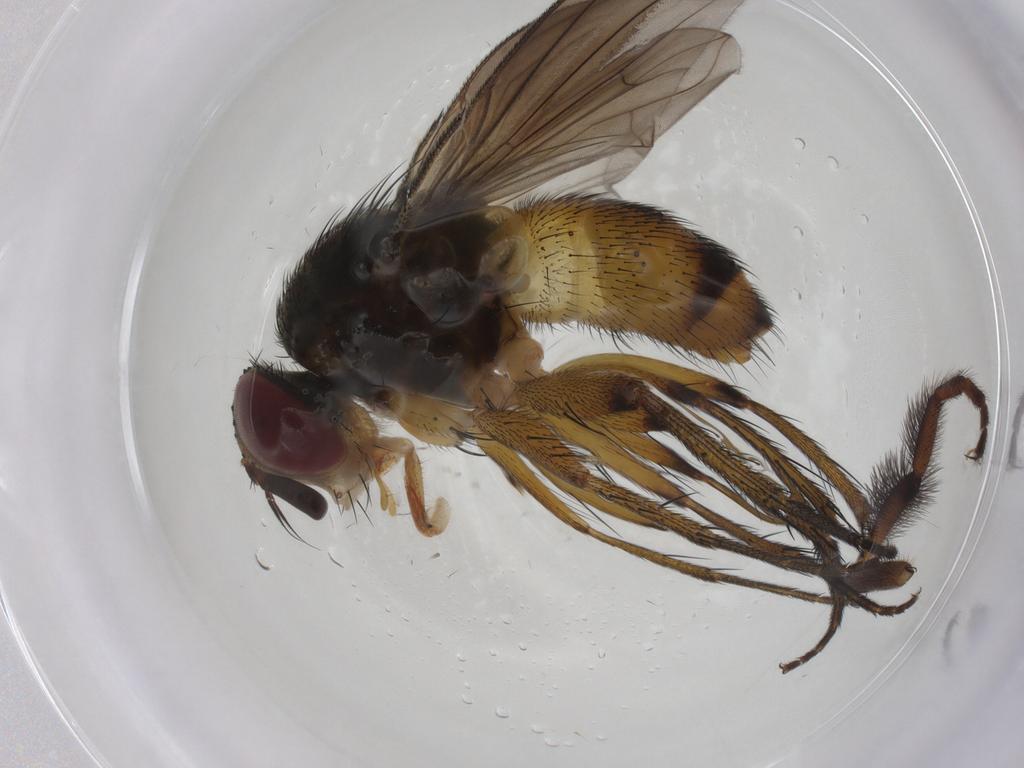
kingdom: Animalia
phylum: Arthropoda
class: Insecta
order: Diptera
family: Empididae
